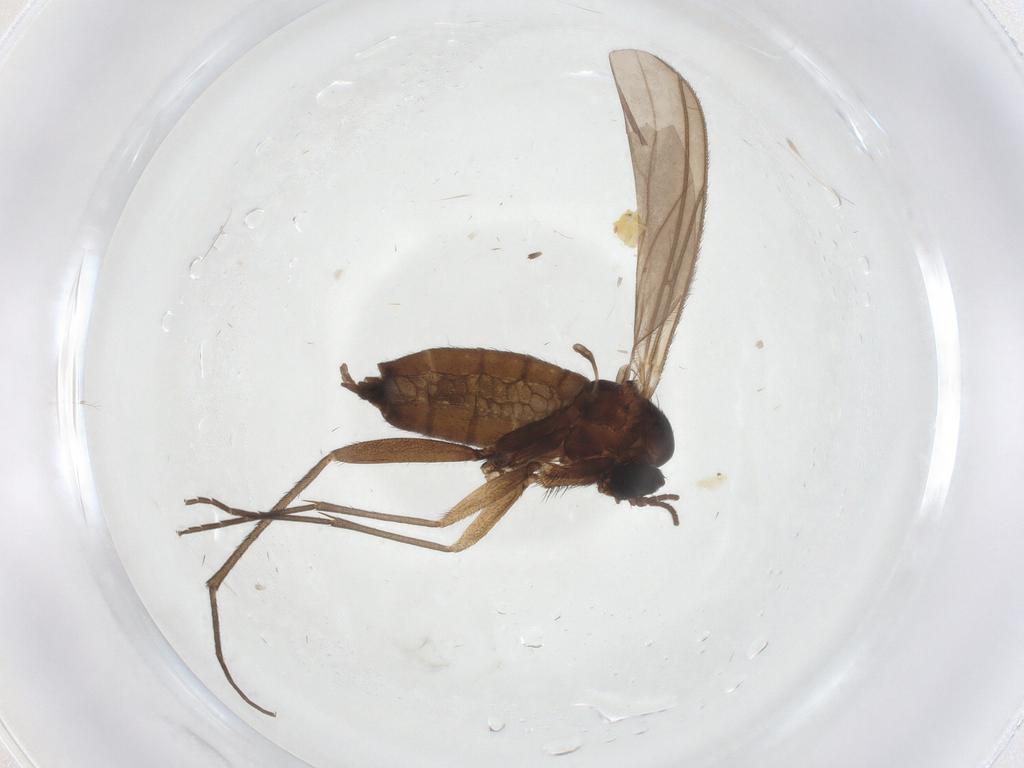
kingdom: Animalia
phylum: Arthropoda
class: Insecta
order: Diptera
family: Sciaridae
